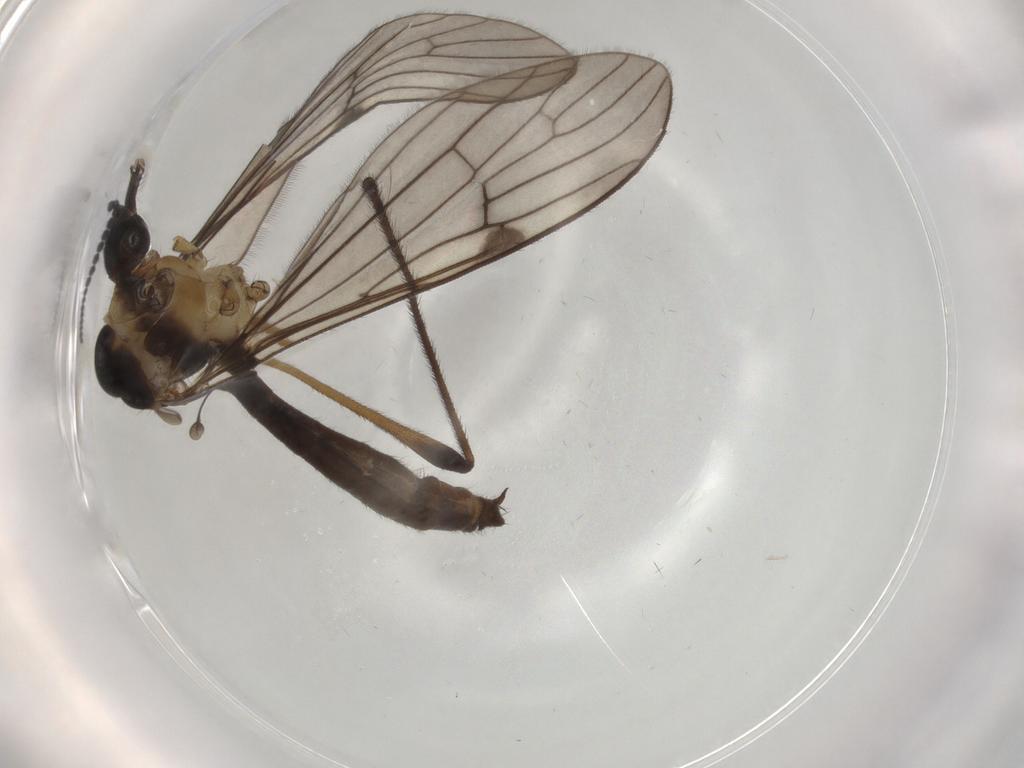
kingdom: Animalia
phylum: Arthropoda
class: Insecta
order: Diptera
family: Limoniidae
